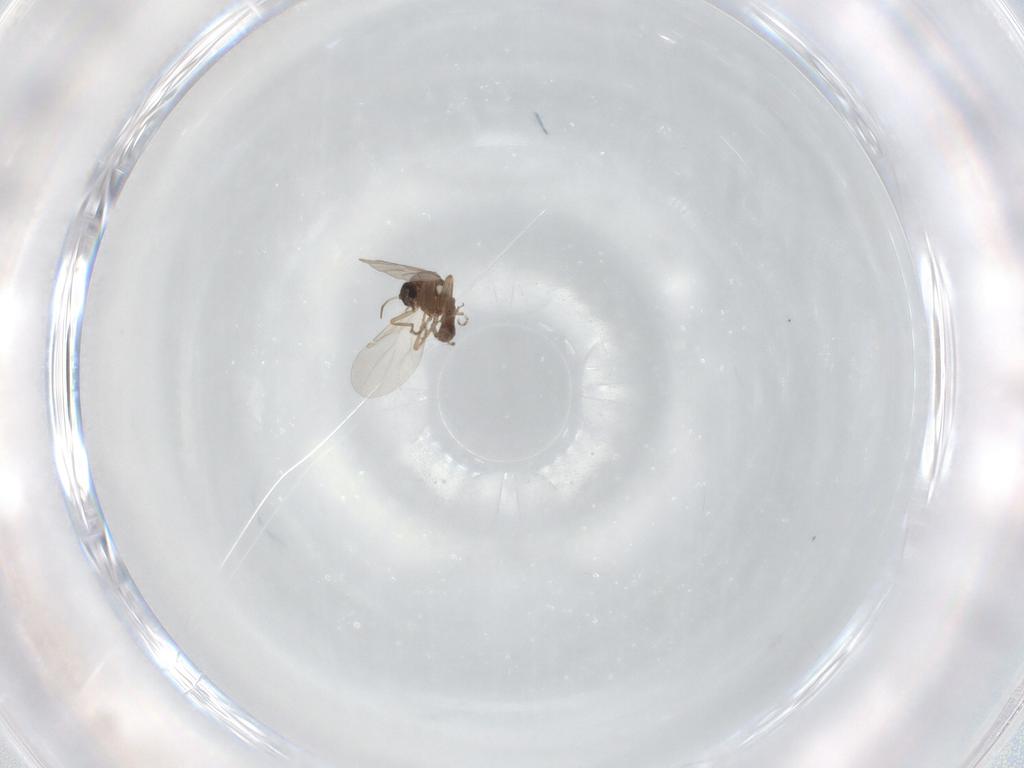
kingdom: Animalia
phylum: Arthropoda
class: Insecta
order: Diptera
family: Ceratopogonidae
